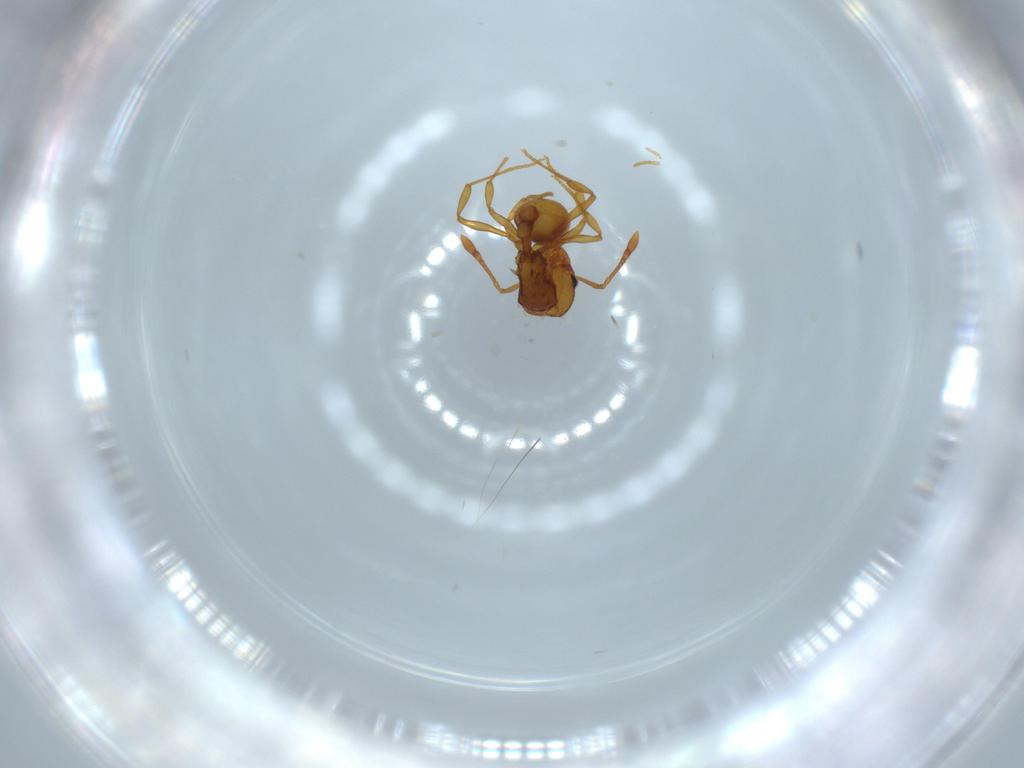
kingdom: Animalia
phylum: Arthropoda
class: Insecta
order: Hymenoptera
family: Formicidae
